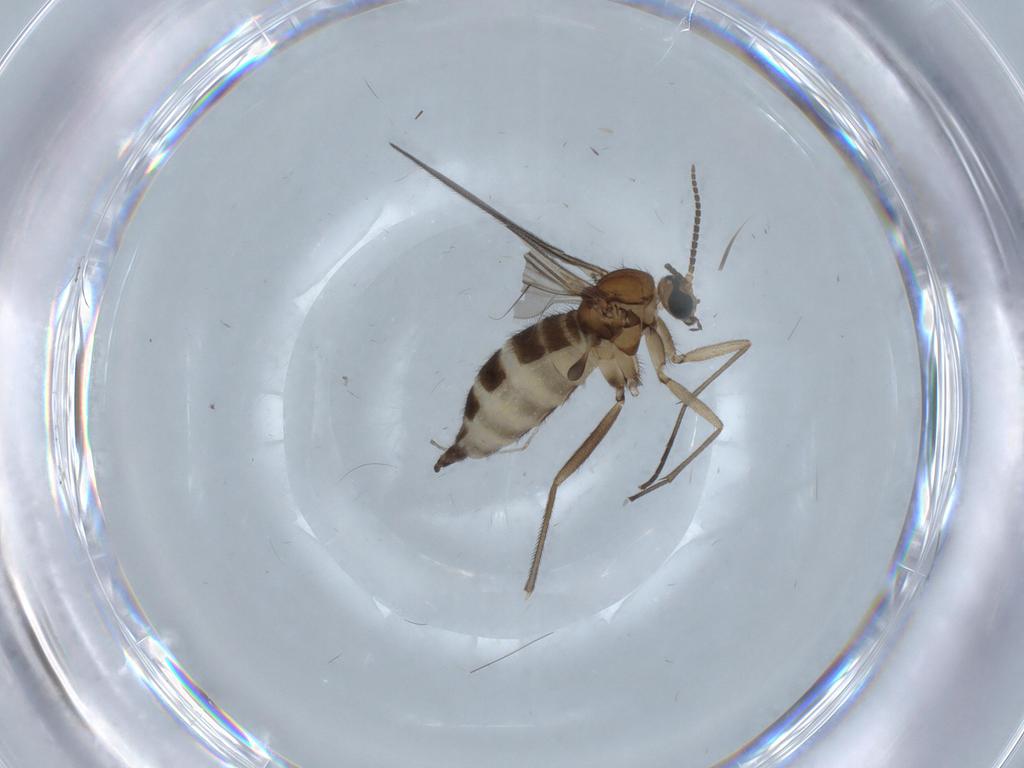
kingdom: Animalia
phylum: Arthropoda
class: Insecta
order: Diptera
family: Sciaridae
